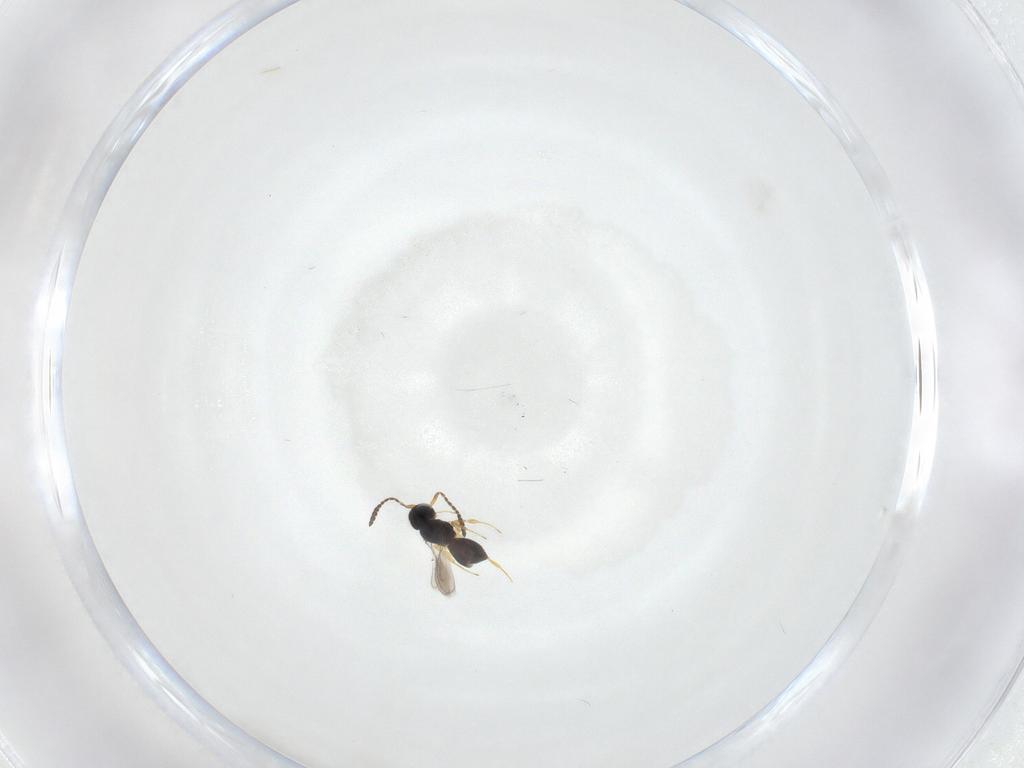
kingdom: Animalia
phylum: Arthropoda
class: Insecta
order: Hymenoptera
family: Scelionidae
